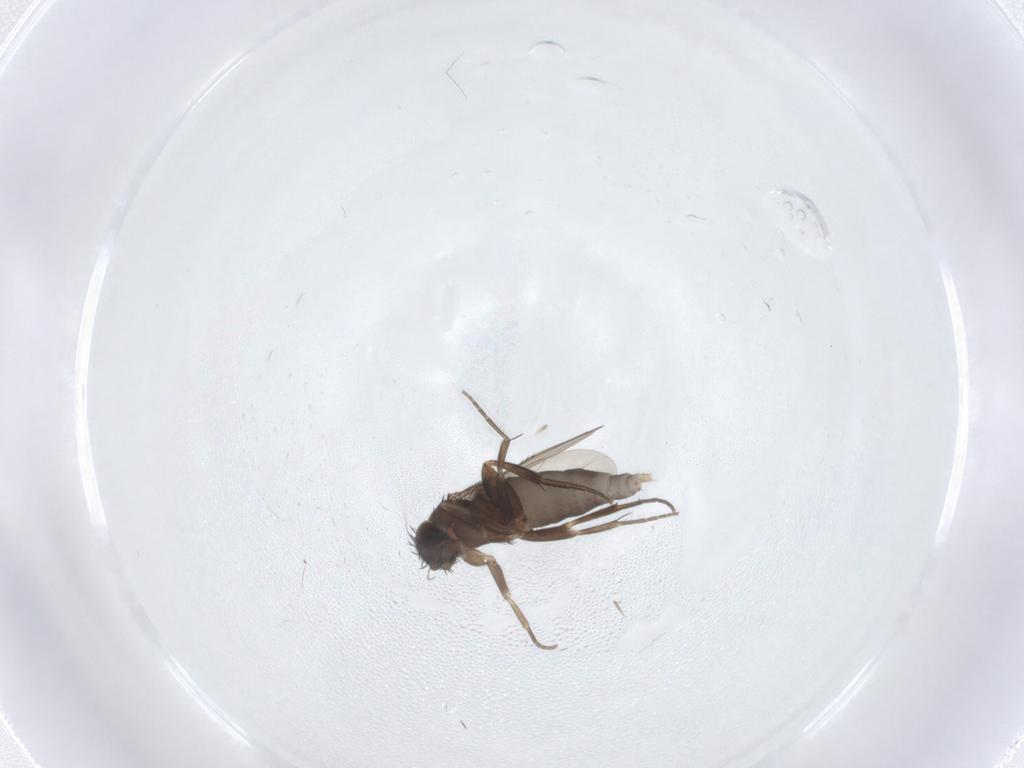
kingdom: Animalia
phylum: Arthropoda
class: Insecta
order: Diptera
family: Phoridae
